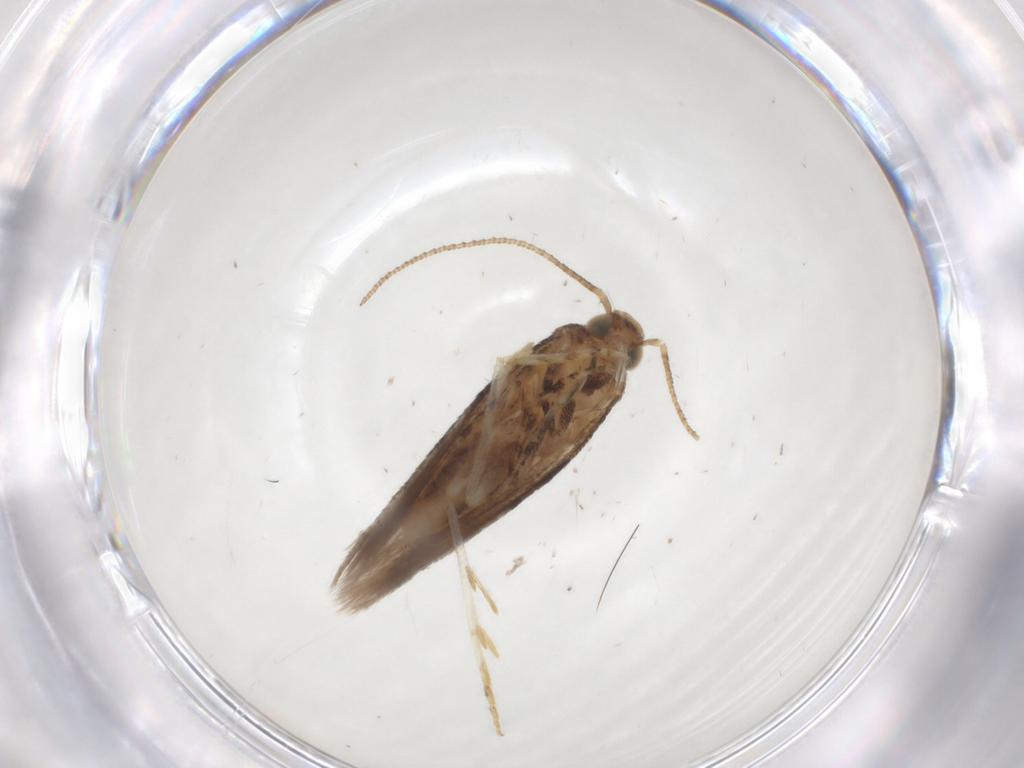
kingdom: Animalia
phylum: Arthropoda
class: Insecta
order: Lepidoptera
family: Gelechiidae
